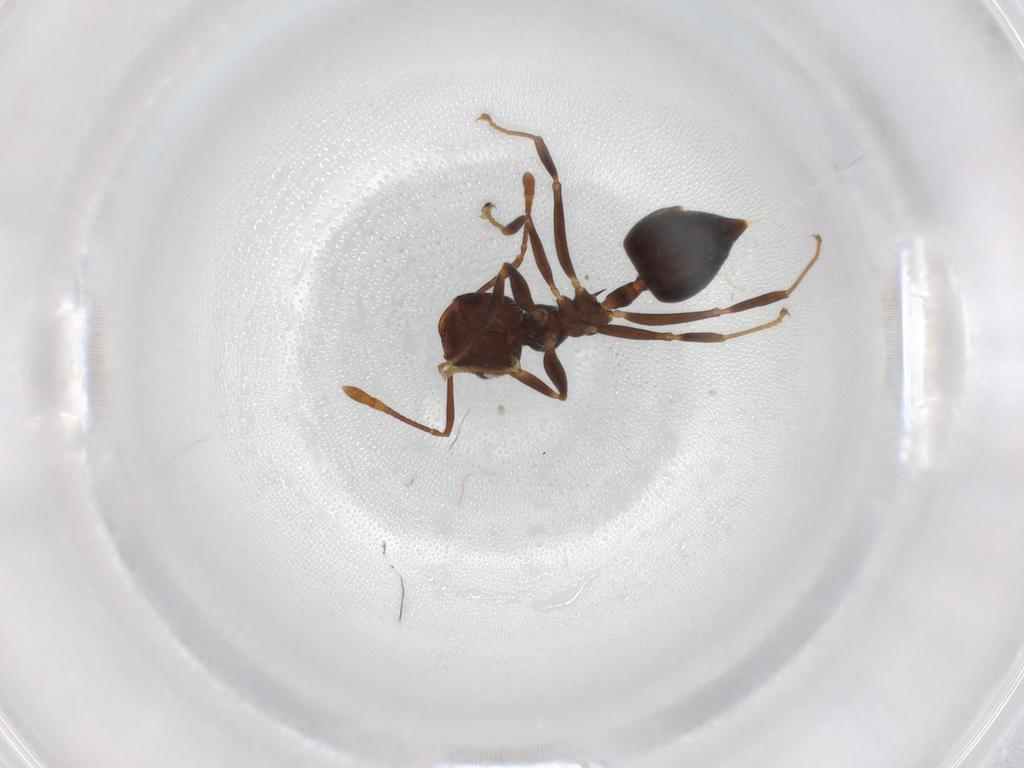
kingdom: Animalia
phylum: Arthropoda
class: Insecta
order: Hymenoptera
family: Formicidae
